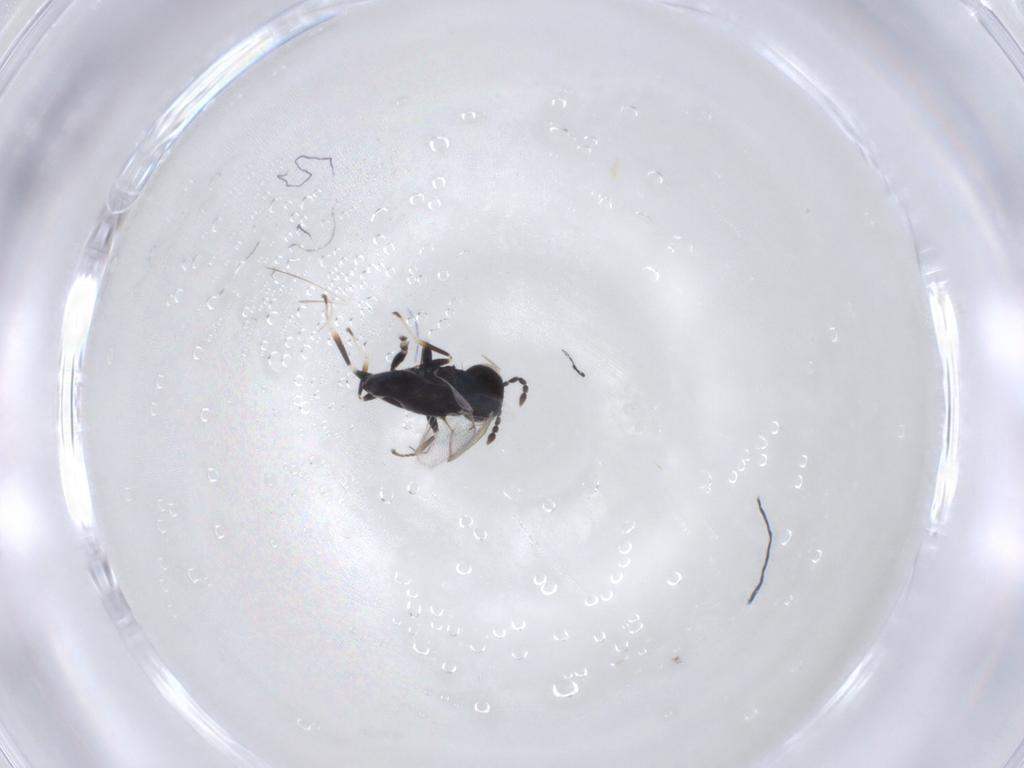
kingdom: Animalia
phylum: Arthropoda
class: Insecta
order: Hymenoptera
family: Eulophidae
